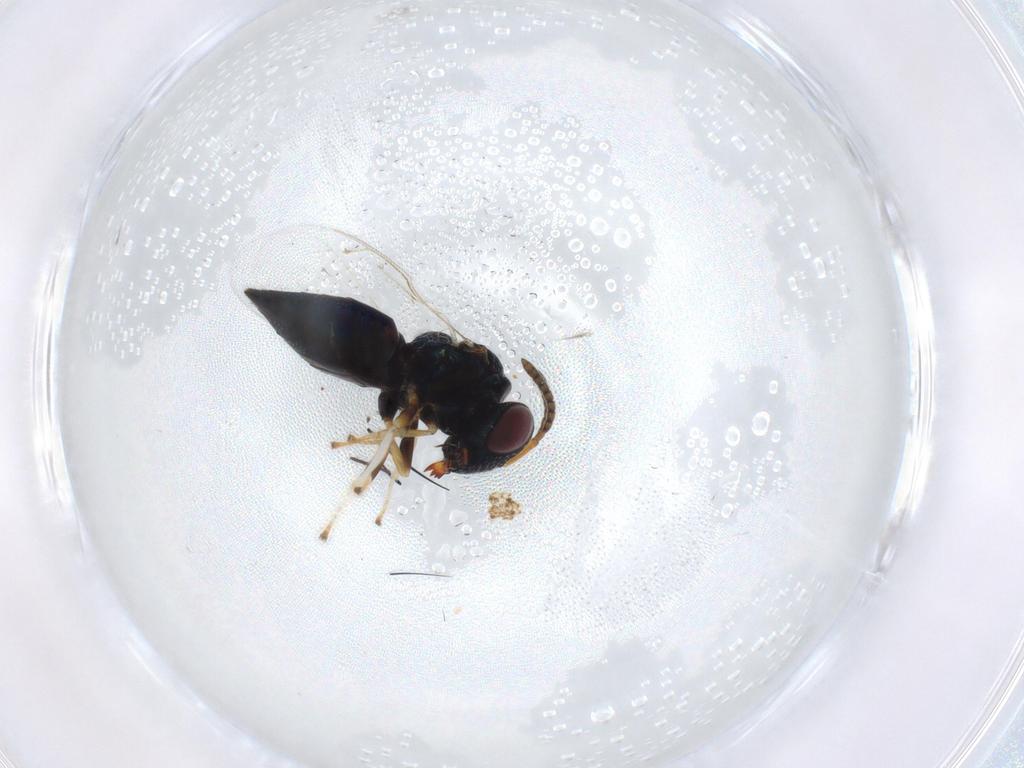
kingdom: Animalia
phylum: Arthropoda
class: Insecta
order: Hymenoptera
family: Pteromalidae
